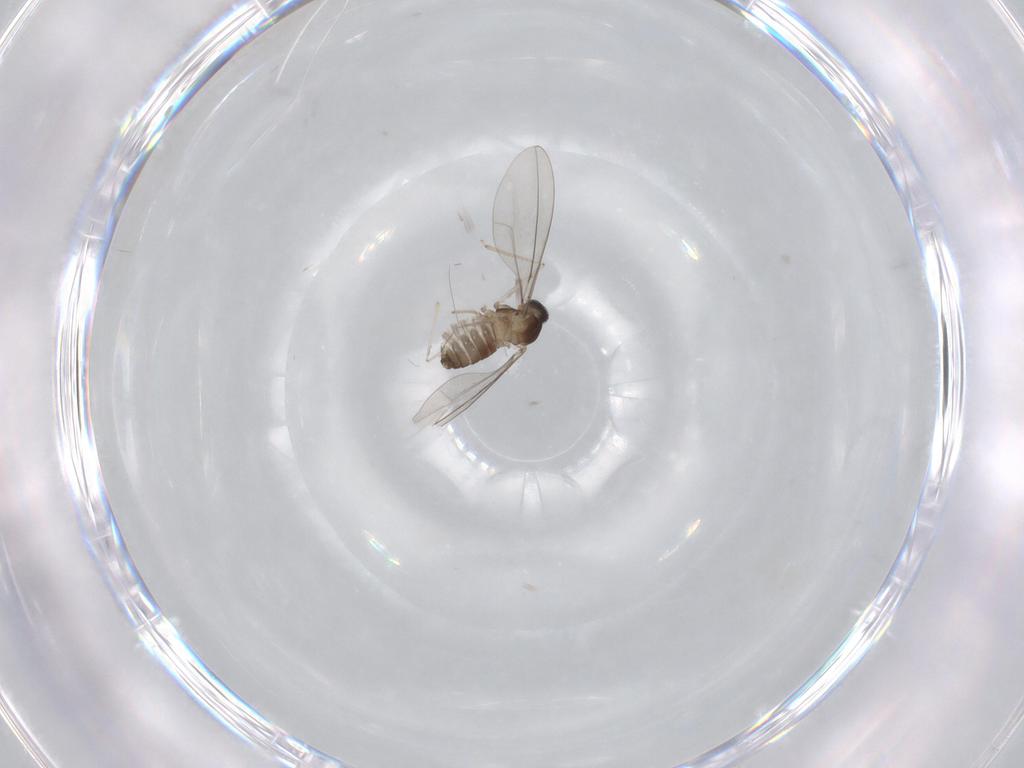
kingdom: Animalia
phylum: Arthropoda
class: Insecta
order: Diptera
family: Cecidomyiidae
